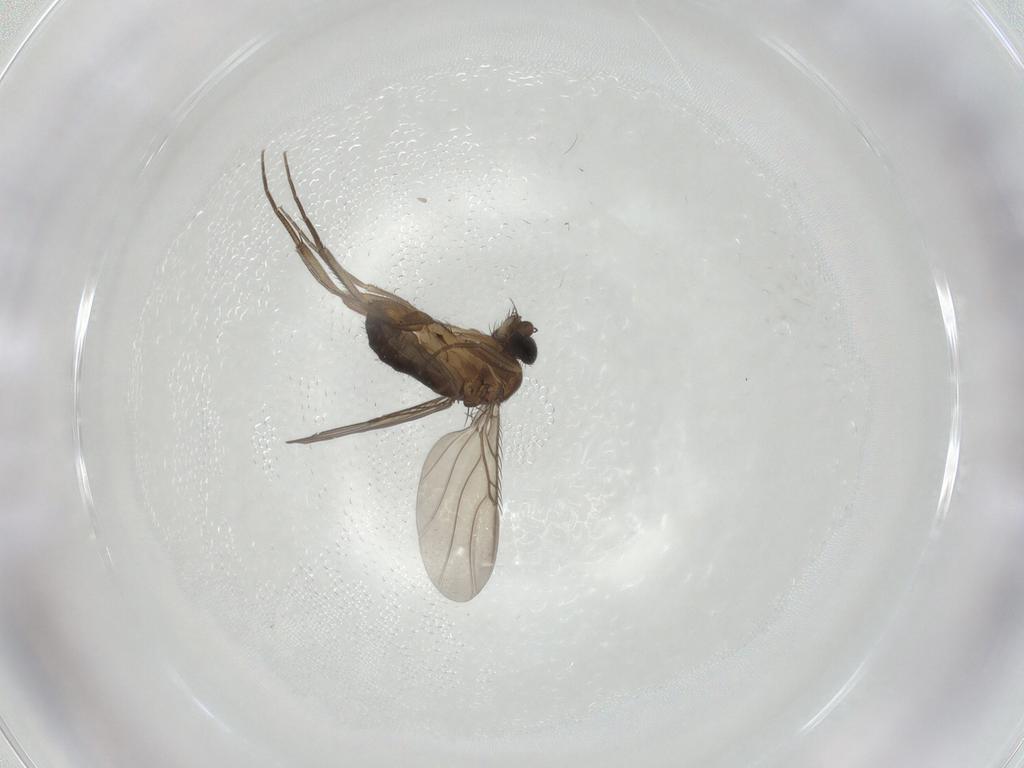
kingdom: Animalia
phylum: Arthropoda
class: Insecta
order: Diptera
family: Phoridae
